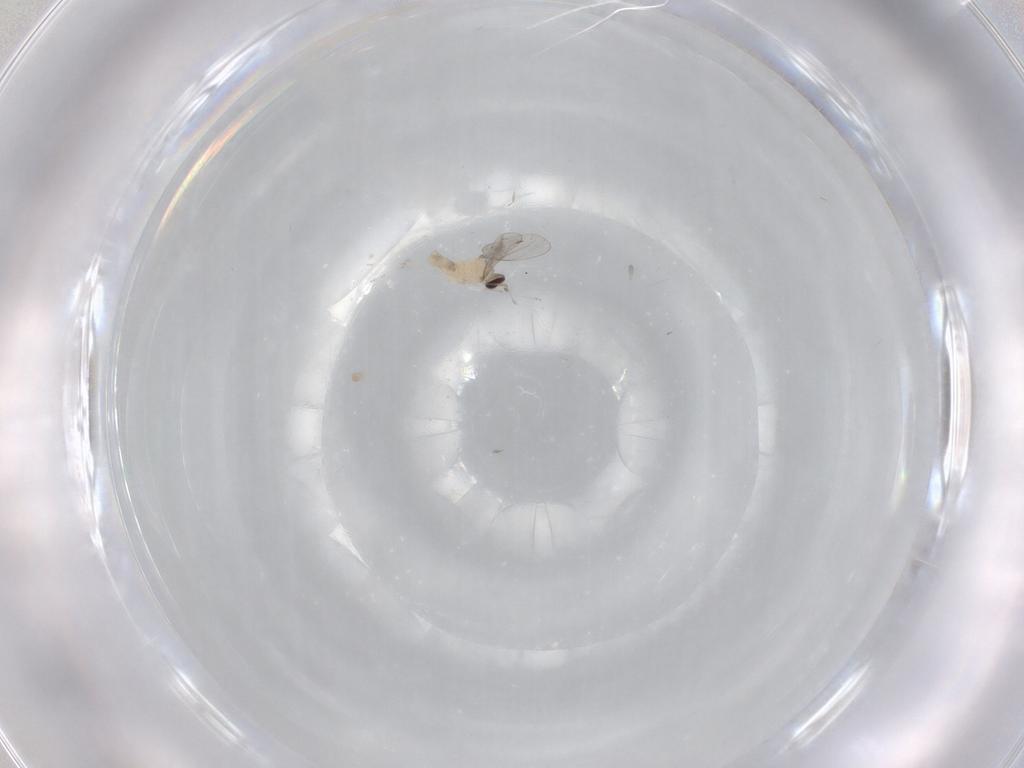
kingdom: Animalia
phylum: Arthropoda
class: Insecta
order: Diptera
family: Cecidomyiidae
